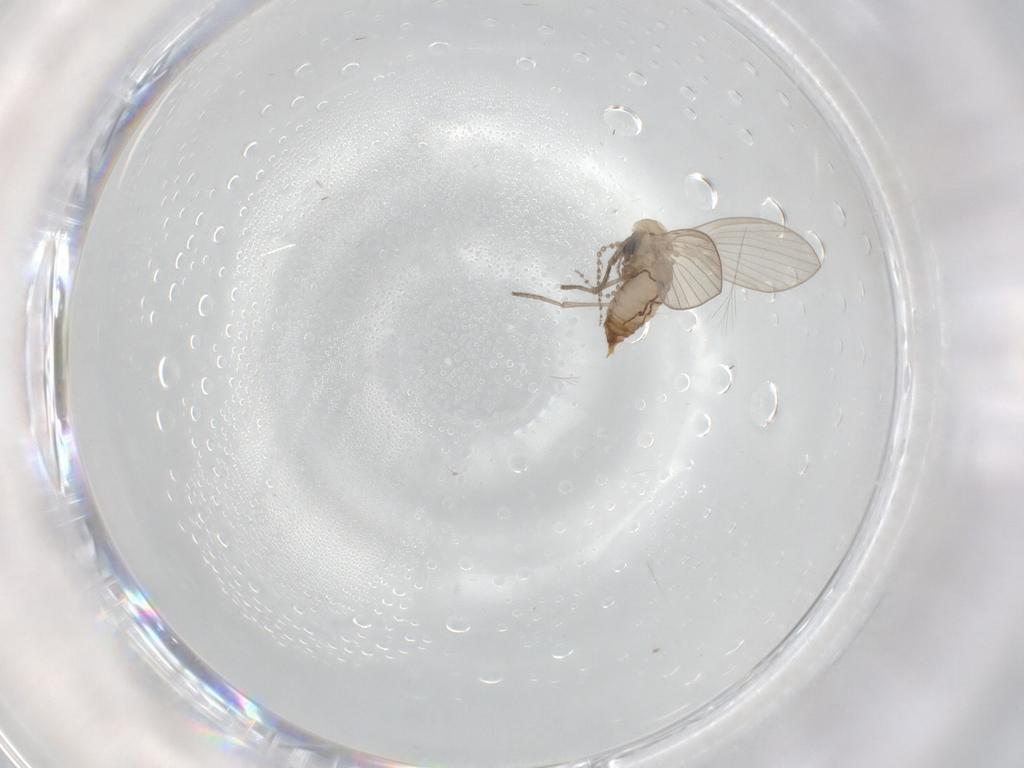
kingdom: Animalia
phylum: Arthropoda
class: Insecta
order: Diptera
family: Psychodidae
